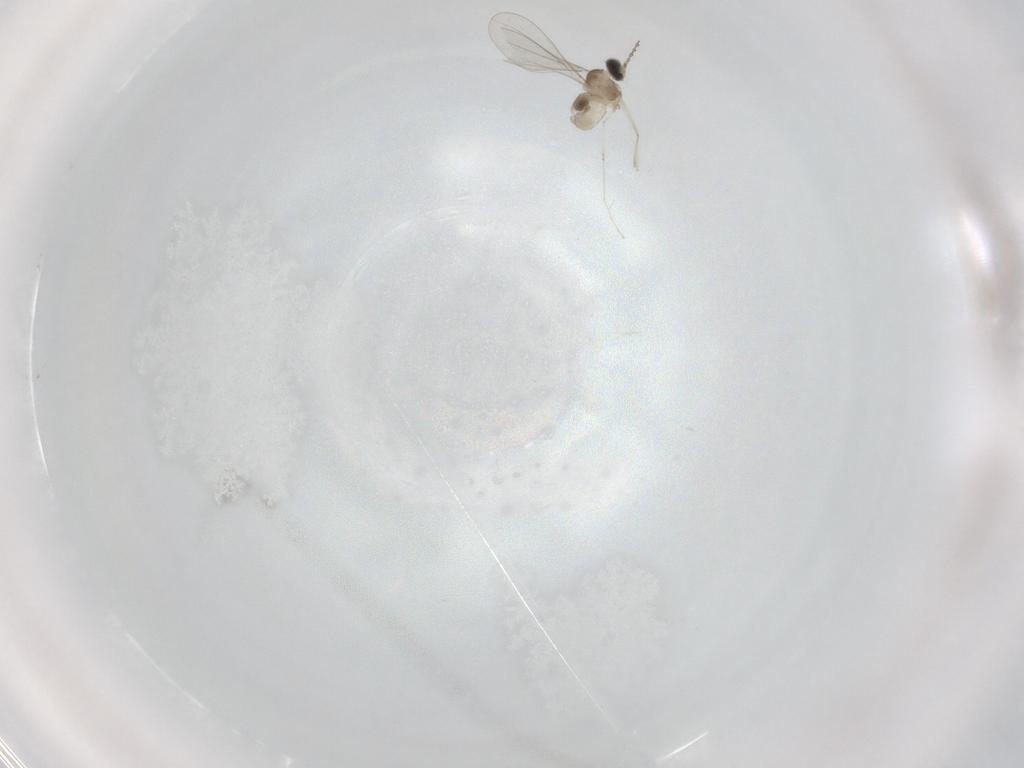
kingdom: Animalia
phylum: Arthropoda
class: Insecta
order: Diptera
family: Cecidomyiidae
